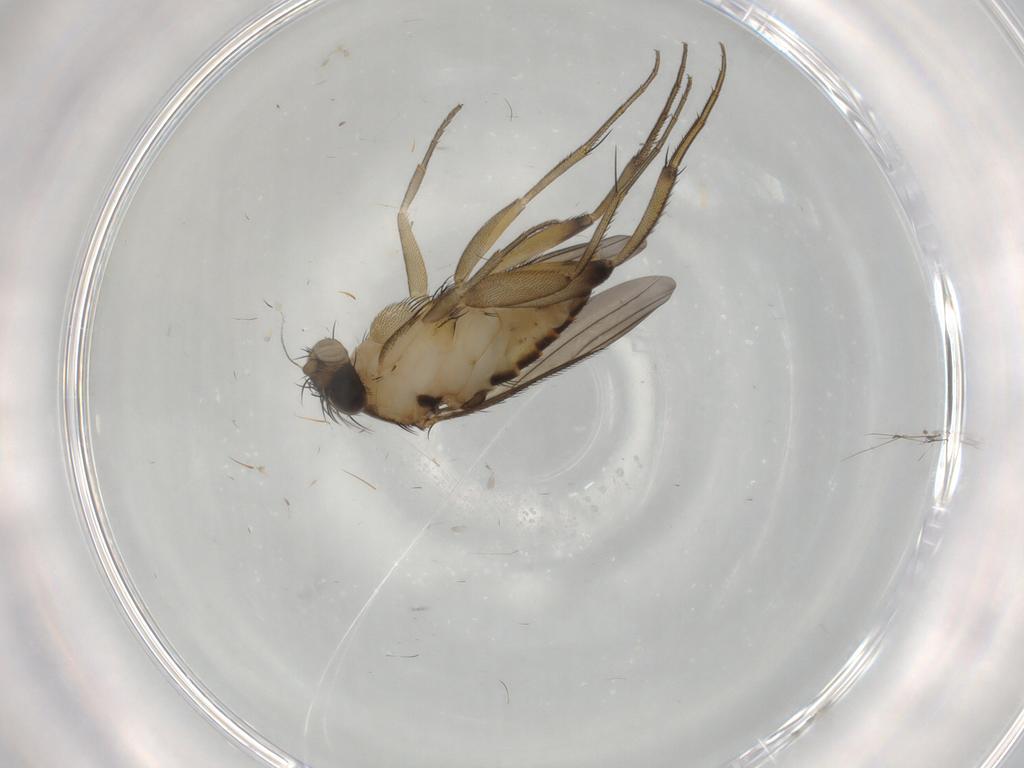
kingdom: Animalia
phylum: Arthropoda
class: Insecta
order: Diptera
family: Phoridae
